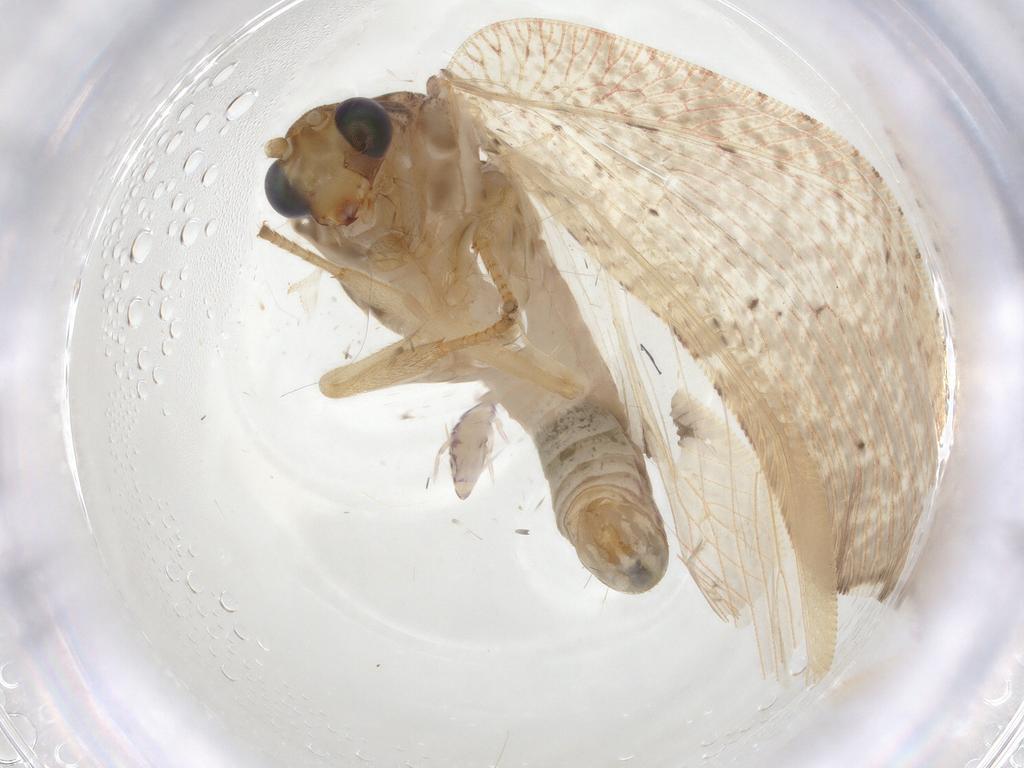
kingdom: Animalia
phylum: Arthropoda
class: Insecta
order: Neuroptera
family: Hemerobiidae
